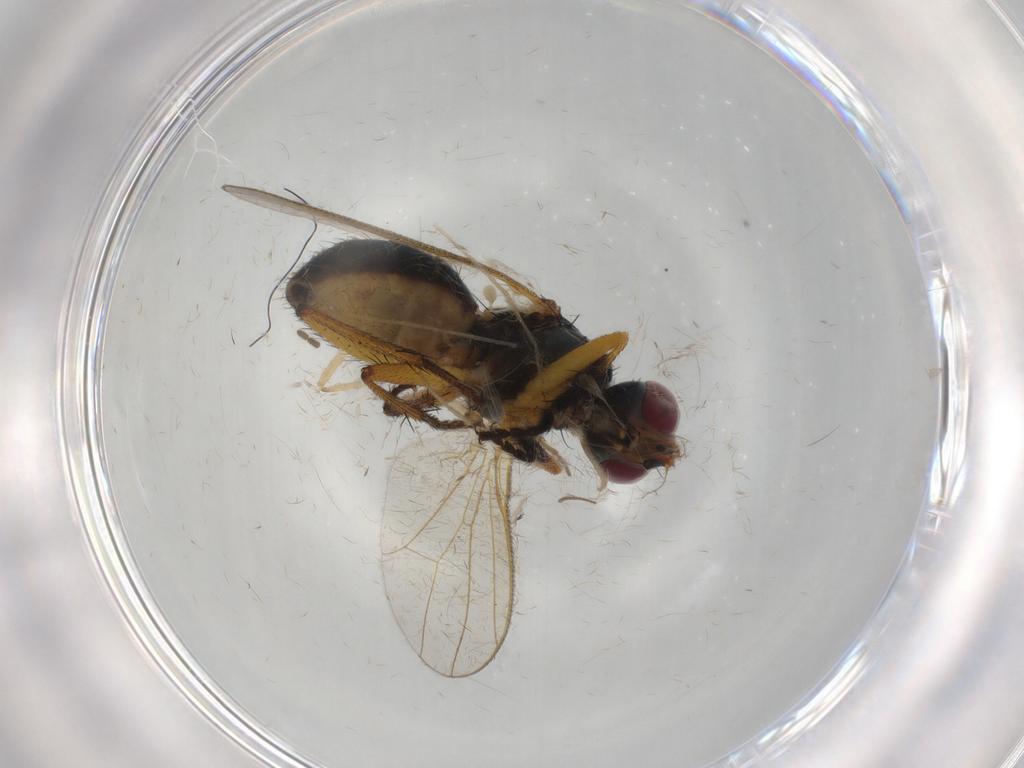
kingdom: Animalia
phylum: Arthropoda
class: Insecta
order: Diptera
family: Muscidae
